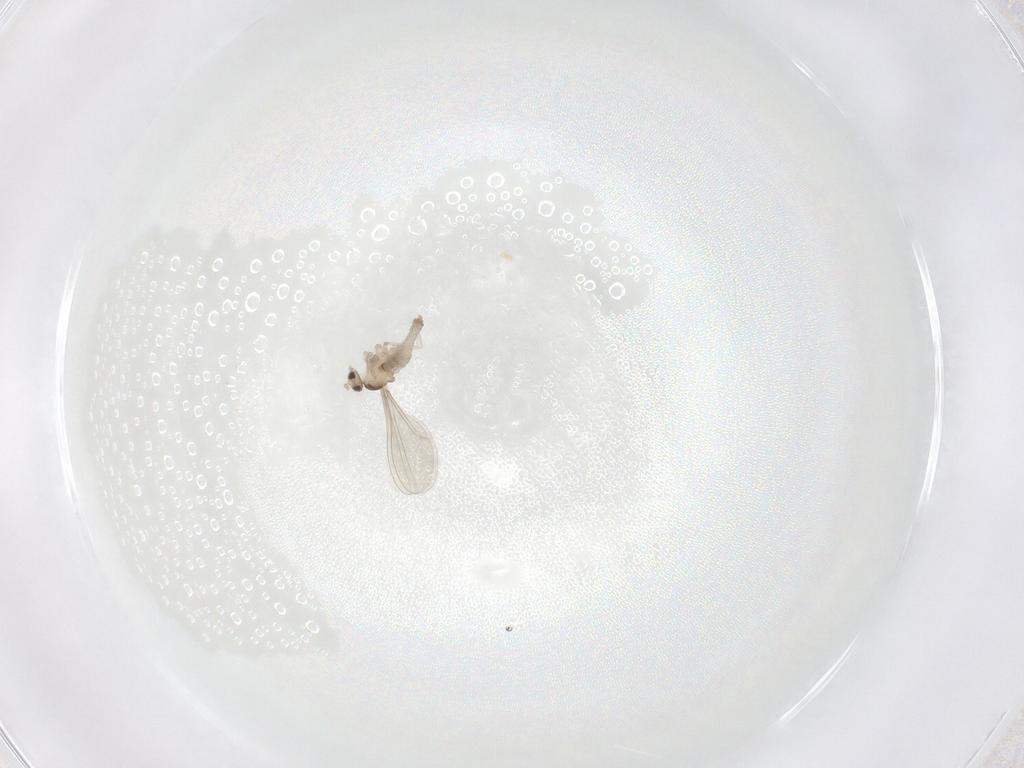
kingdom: Animalia
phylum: Arthropoda
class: Insecta
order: Diptera
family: Cecidomyiidae
